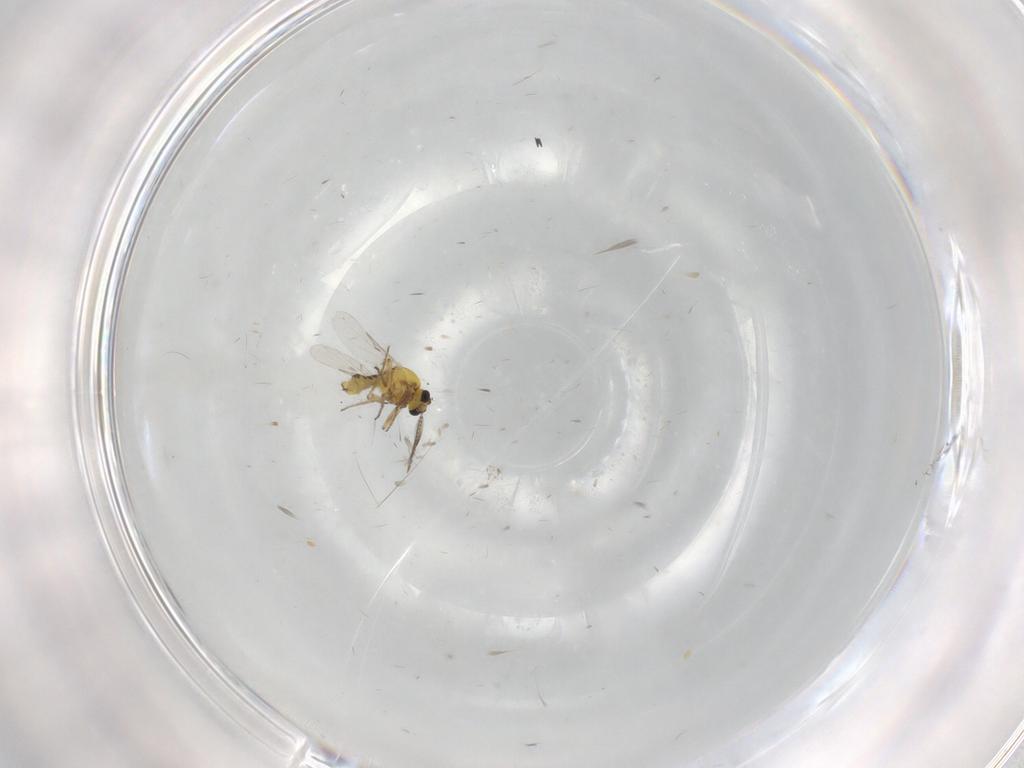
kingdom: Animalia
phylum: Arthropoda
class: Insecta
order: Diptera
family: Ceratopogonidae
